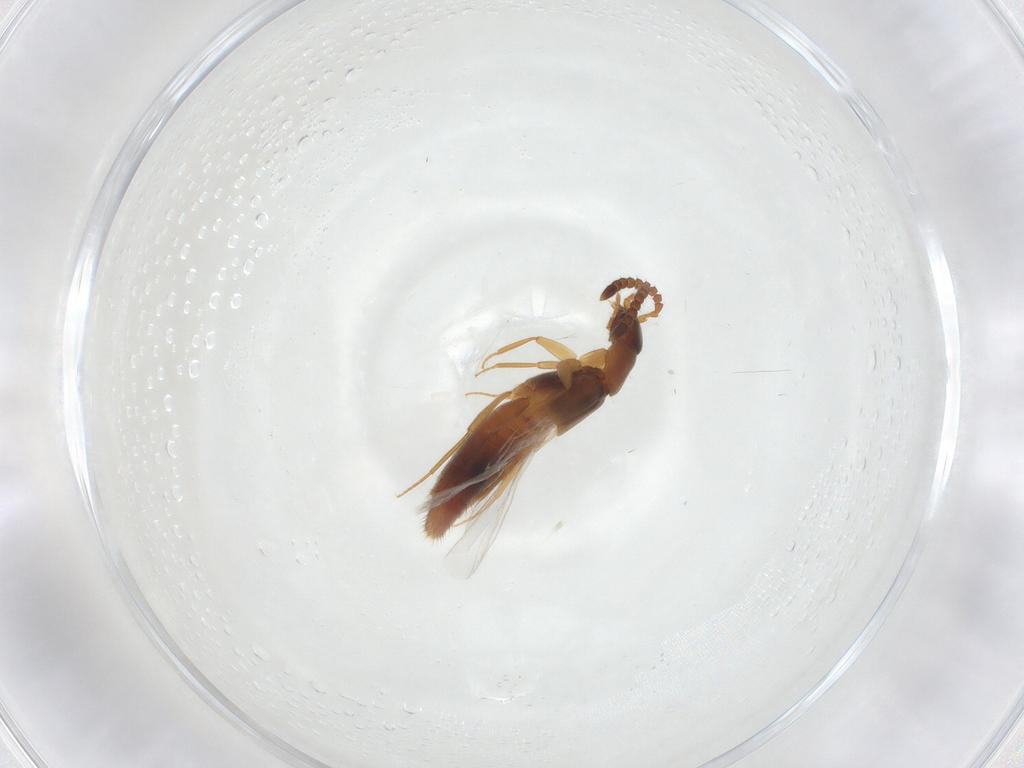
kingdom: Animalia
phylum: Arthropoda
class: Insecta
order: Coleoptera
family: Staphylinidae
